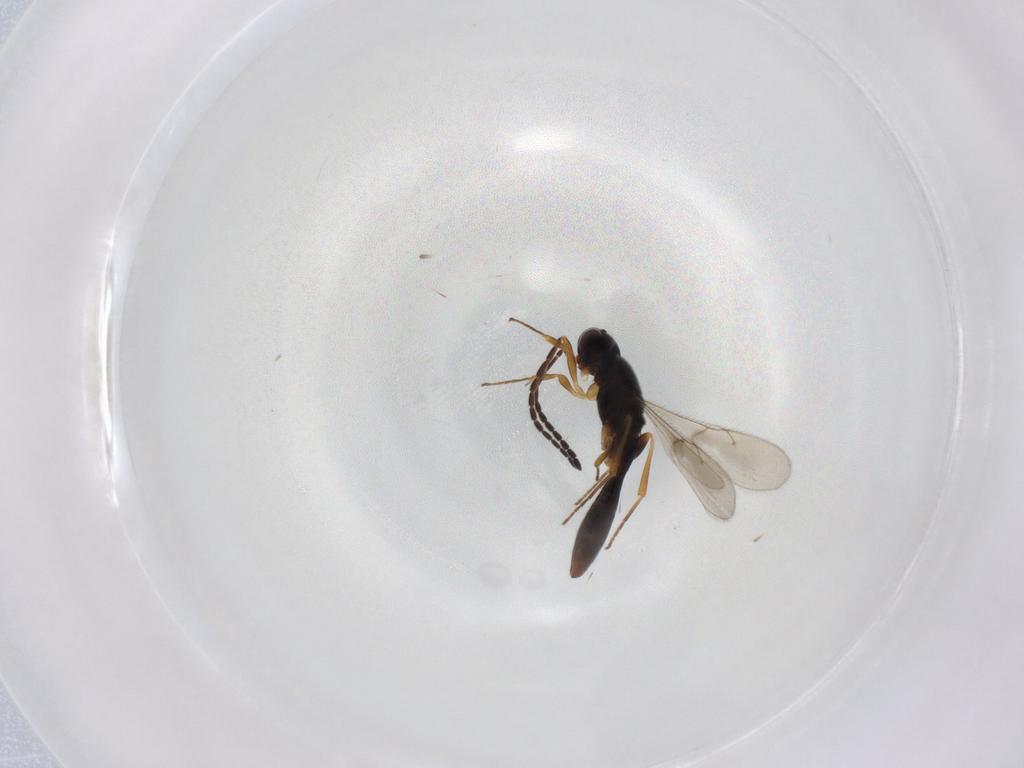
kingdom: Animalia
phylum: Arthropoda
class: Insecta
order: Hymenoptera
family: Scelionidae
